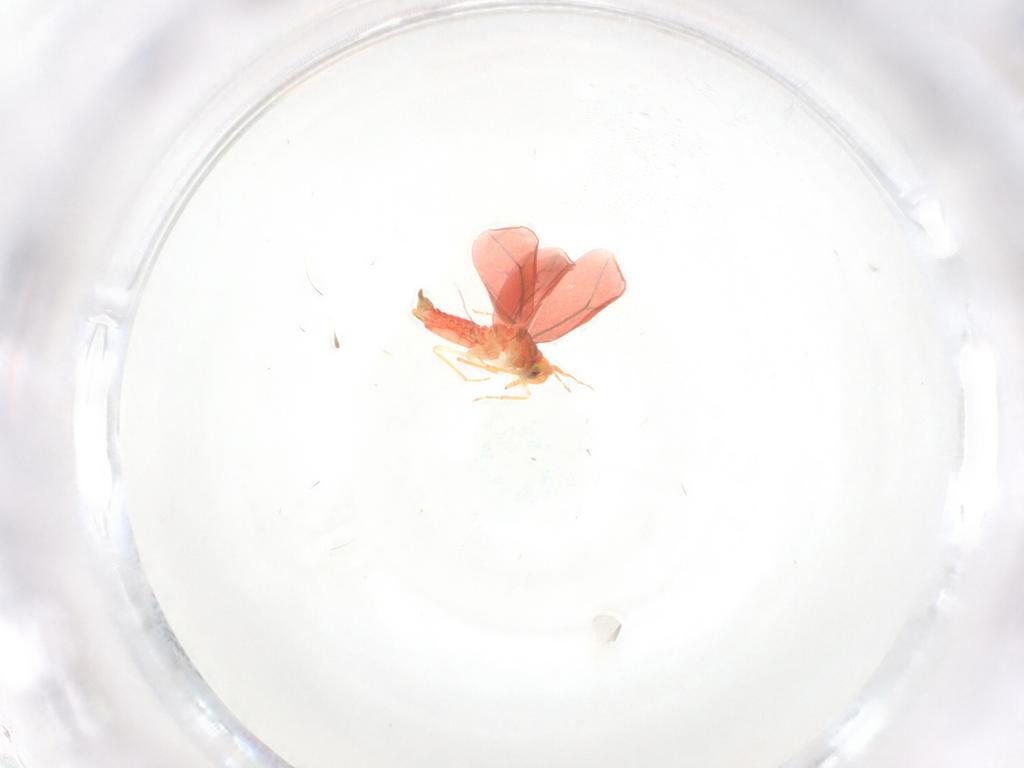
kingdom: Animalia
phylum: Arthropoda
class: Insecta
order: Hemiptera
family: Aleyrodidae
